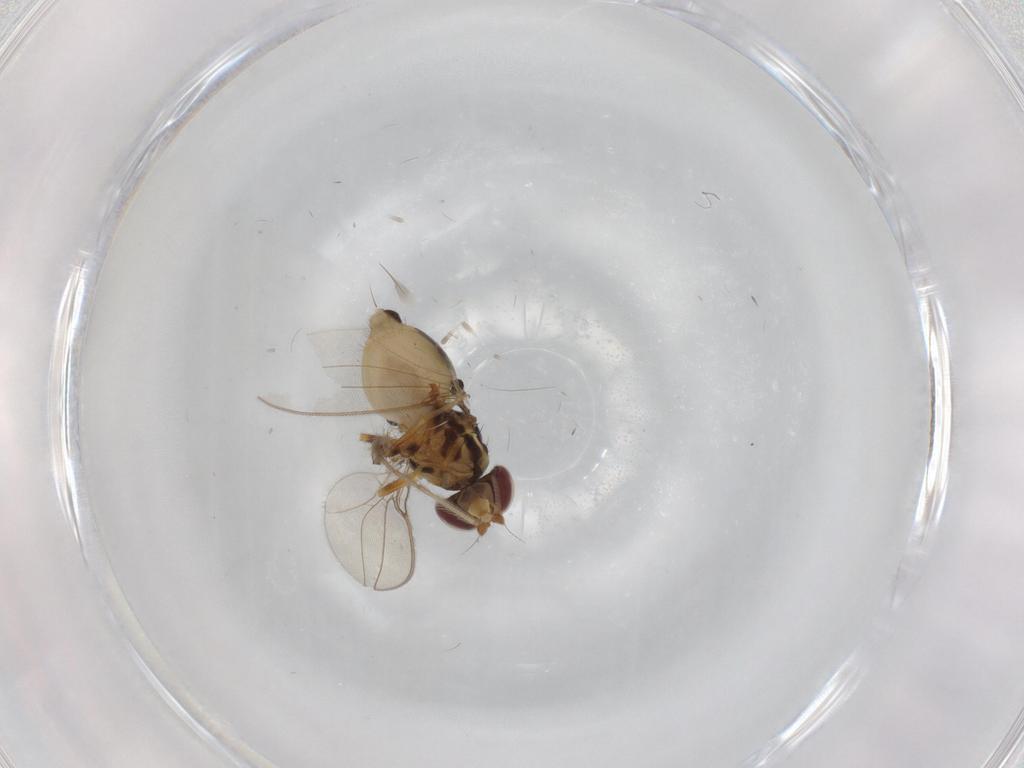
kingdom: Animalia
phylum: Arthropoda
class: Insecta
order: Diptera
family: Asteiidae
